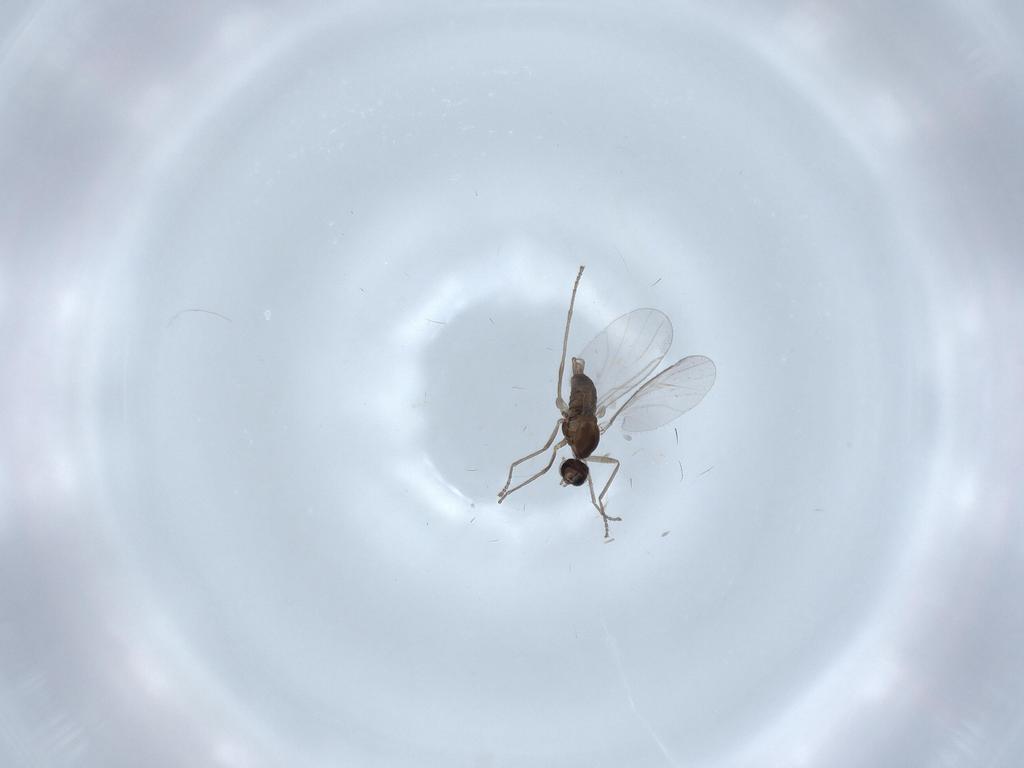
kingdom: Animalia
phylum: Arthropoda
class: Insecta
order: Diptera
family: Cecidomyiidae
